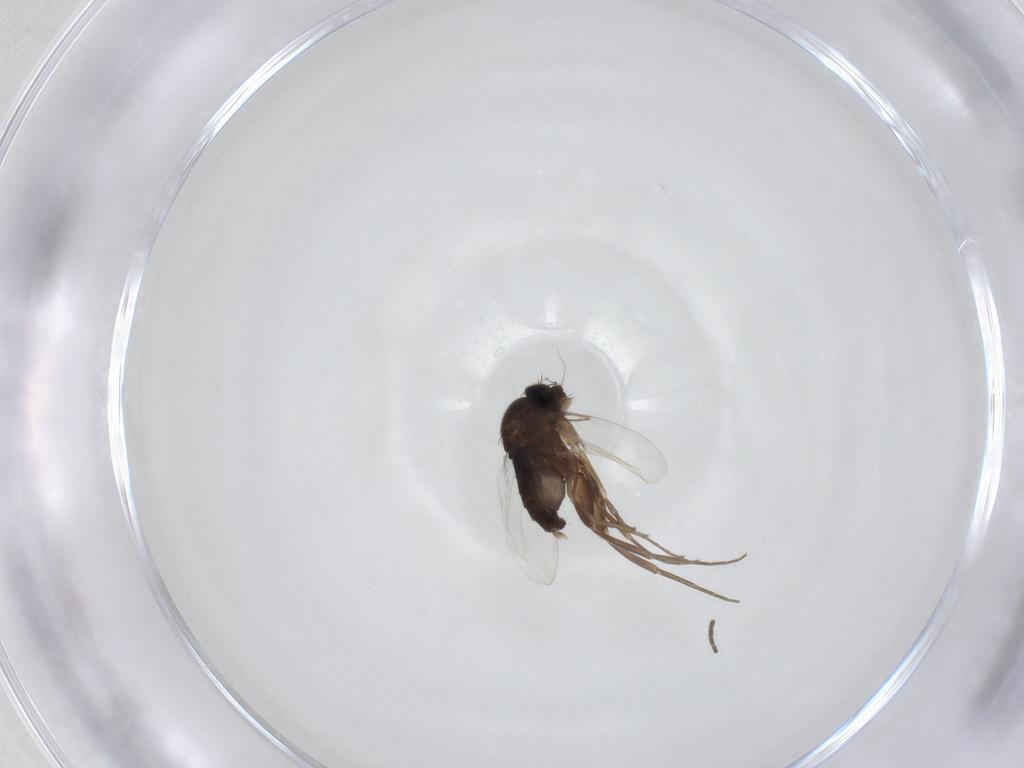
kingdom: Animalia
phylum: Arthropoda
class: Insecta
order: Diptera
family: Sciaridae
